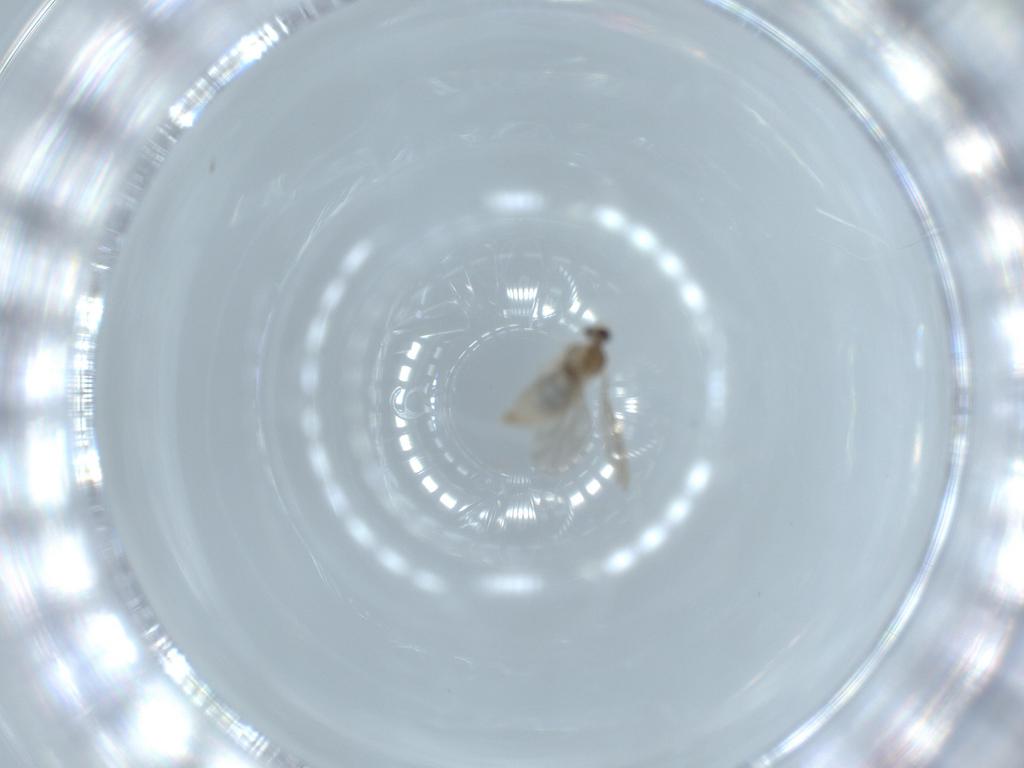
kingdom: Animalia
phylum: Arthropoda
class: Insecta
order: Diptera
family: Cecidomyiidae
